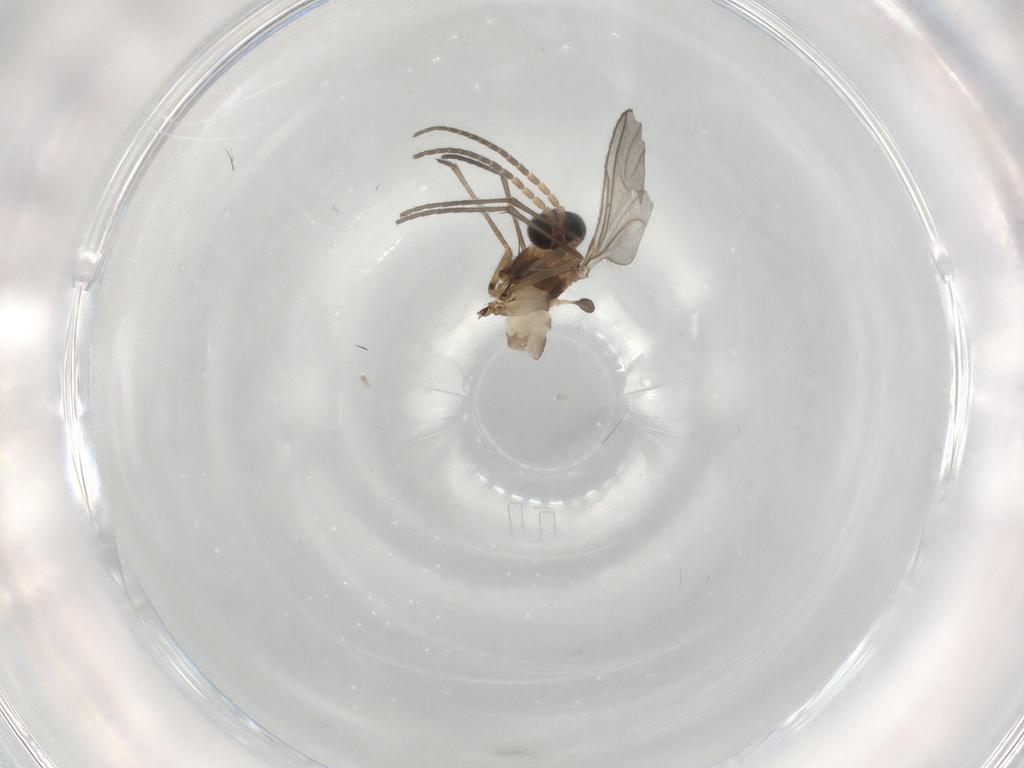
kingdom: Animalia
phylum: Arthropoda
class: Insecta
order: Diptera
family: Sciaridae
